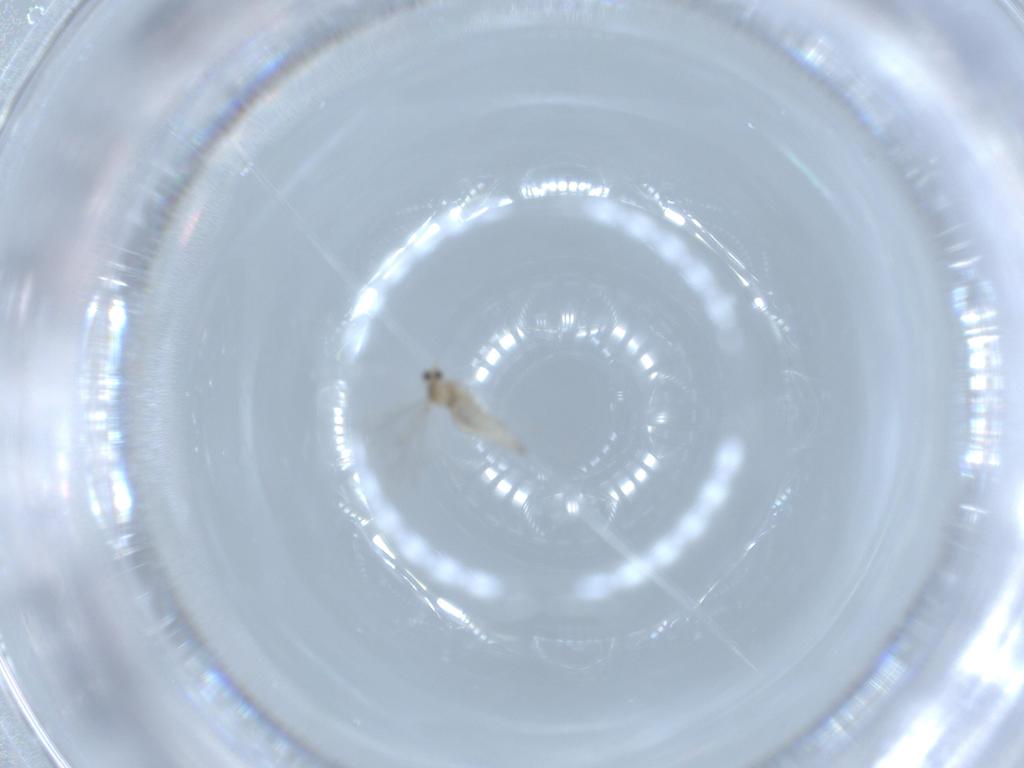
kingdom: Animalia
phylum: Arthropoda
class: Insecta
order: Diptera
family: Cecidomyiidae
